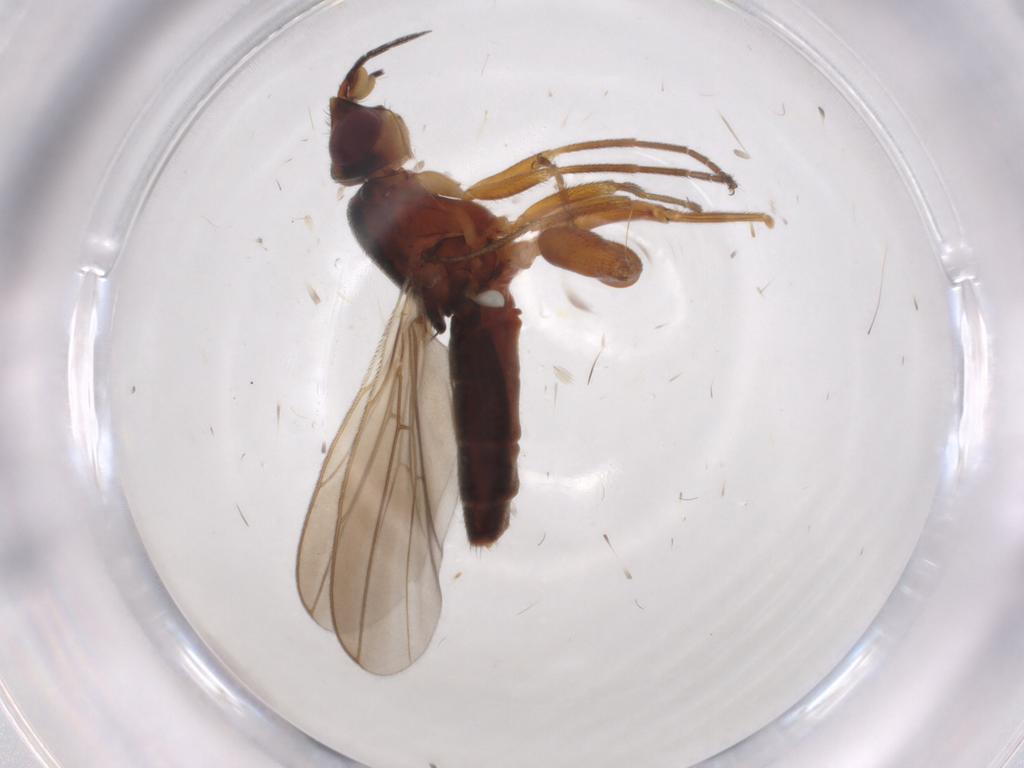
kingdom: Animalia
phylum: Arthropoda
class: Insecta
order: Diptera
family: Chloropidae
